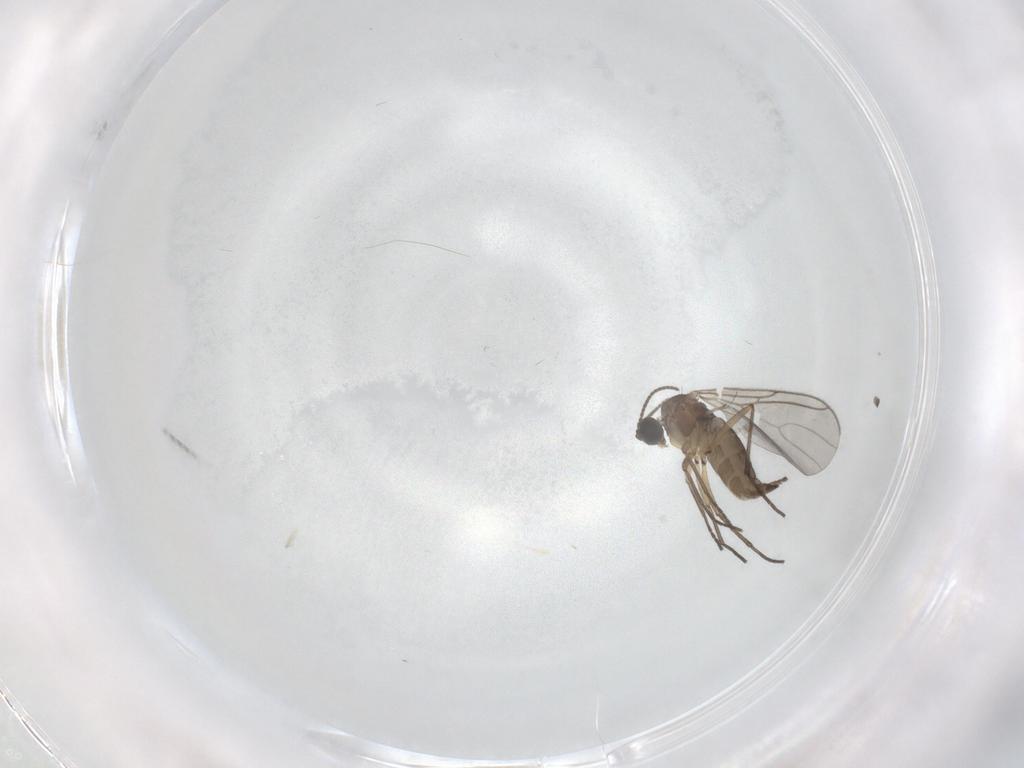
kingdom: Animalia
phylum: Arthropoda
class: Insecta
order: Diptera
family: Sciaridae
